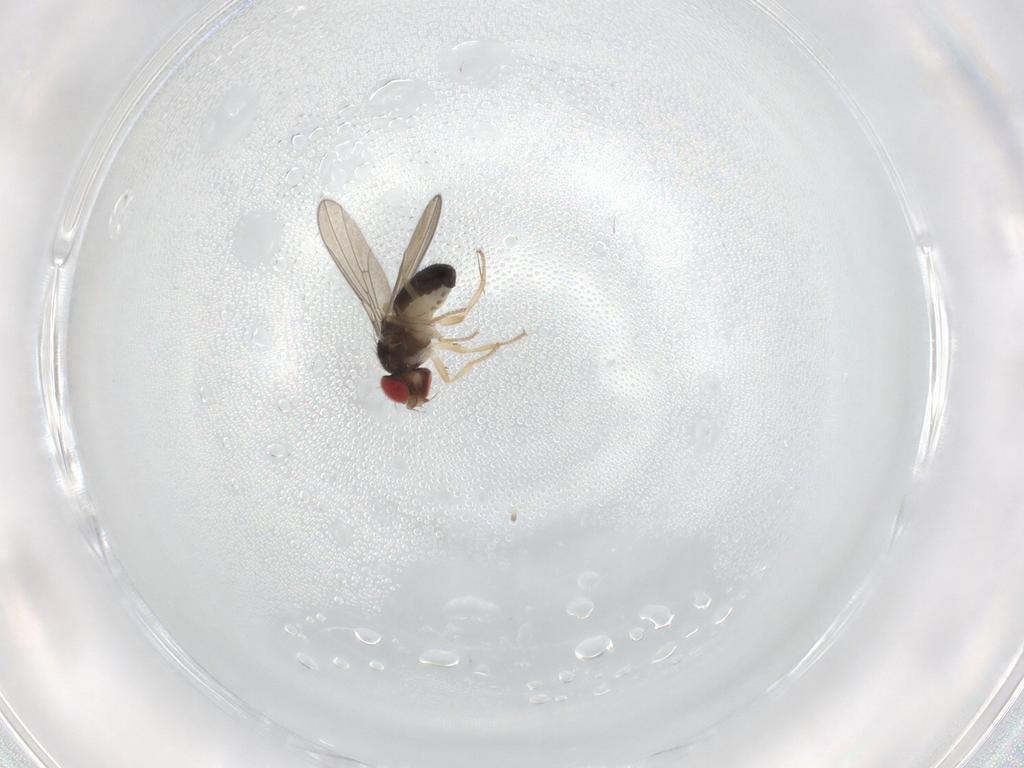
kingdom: Animalia
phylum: Arthropoda
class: Insecta
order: Diptera
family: Drosophilidae
